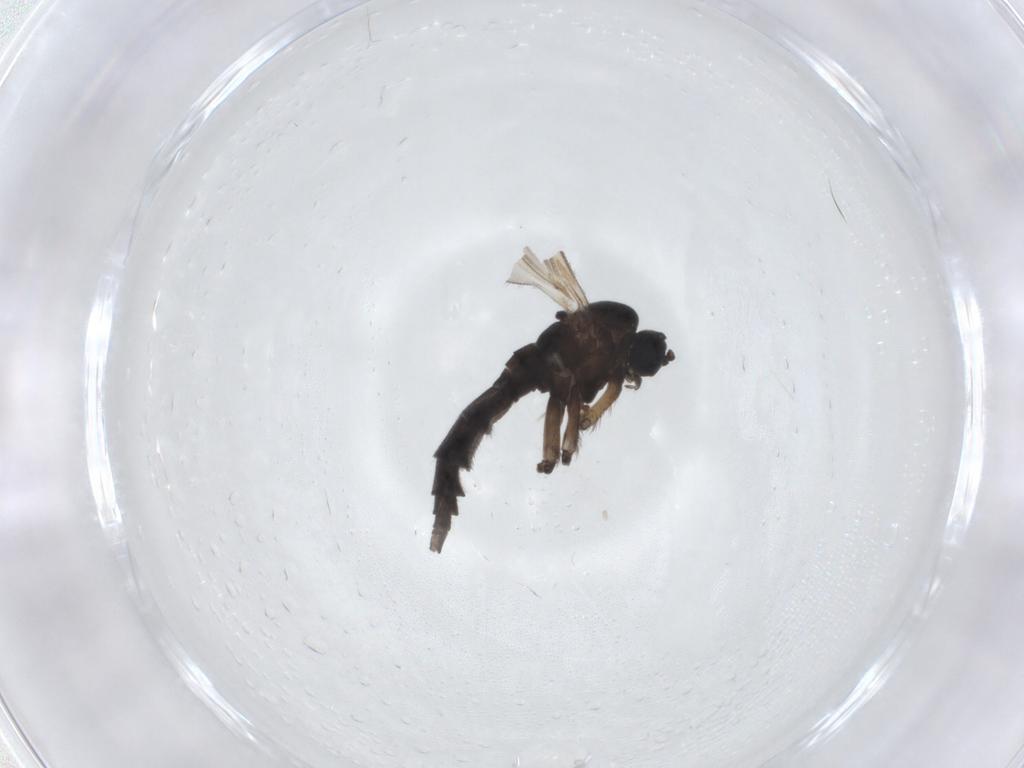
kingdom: Animalia
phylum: Arthropoda
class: Insecta
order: Diptera
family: Sciaridae
